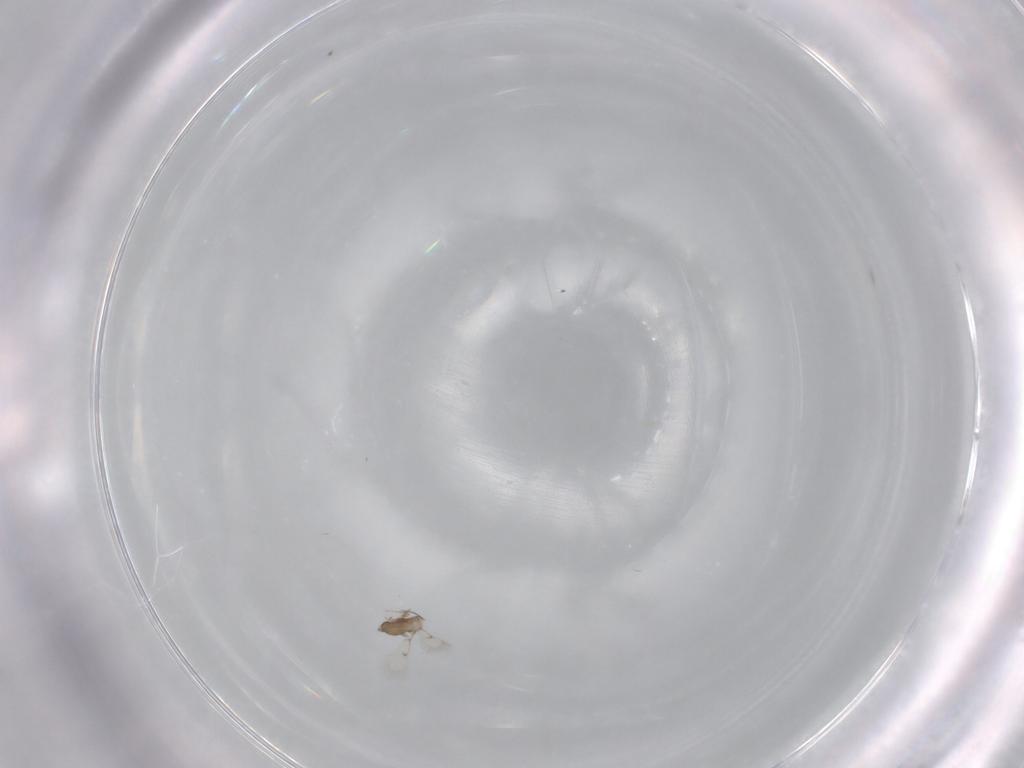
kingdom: Animalia
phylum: Arthropoda
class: Insecta
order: Hymenoptera
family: Trichogrammatidae
